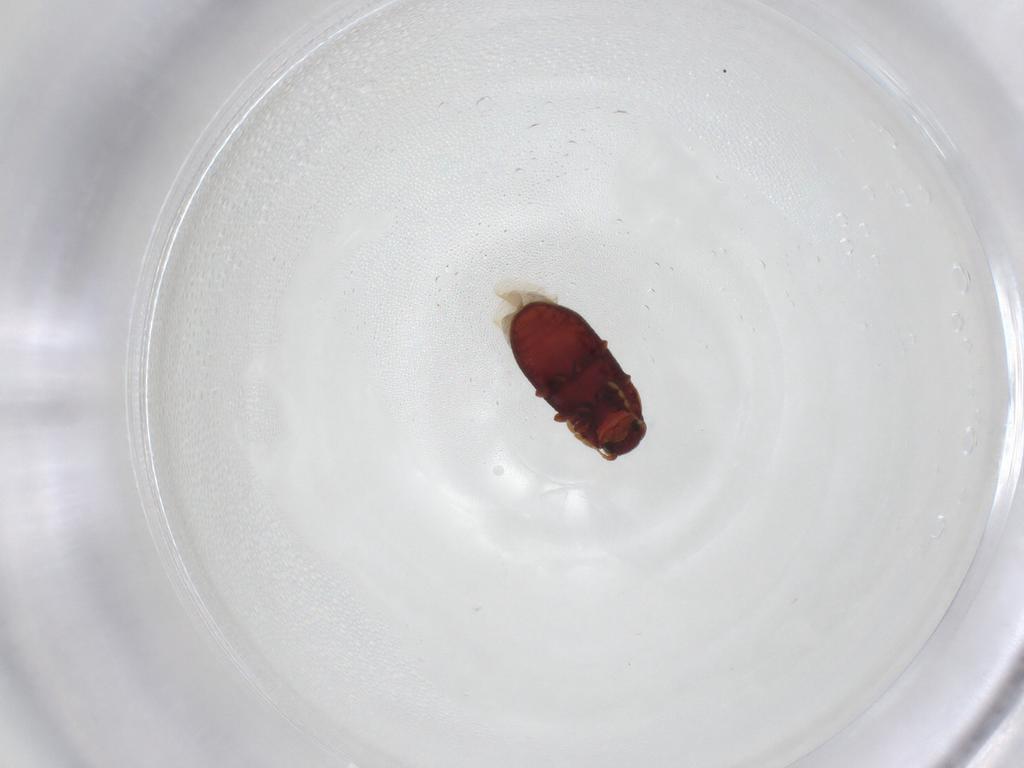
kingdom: Animalia
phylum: Arthropoda
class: Insecta
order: Coleoptera
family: Ptinidae
